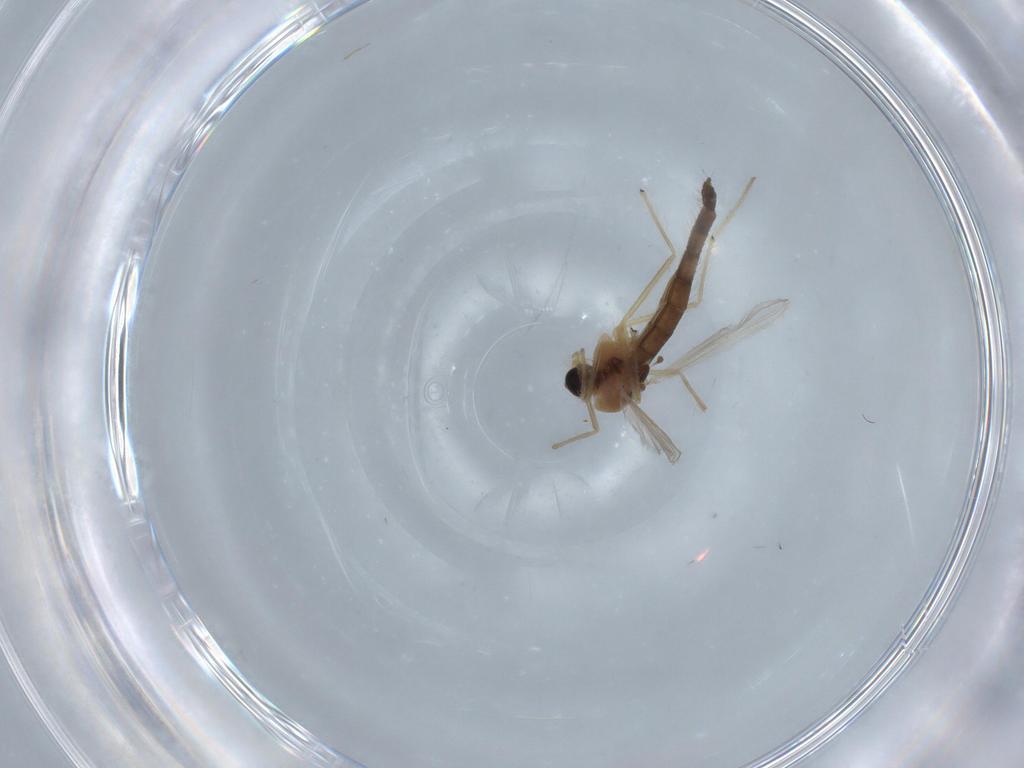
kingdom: Animalia
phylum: Arthropoda
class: Insecta
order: Diptera
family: Chironomidae
